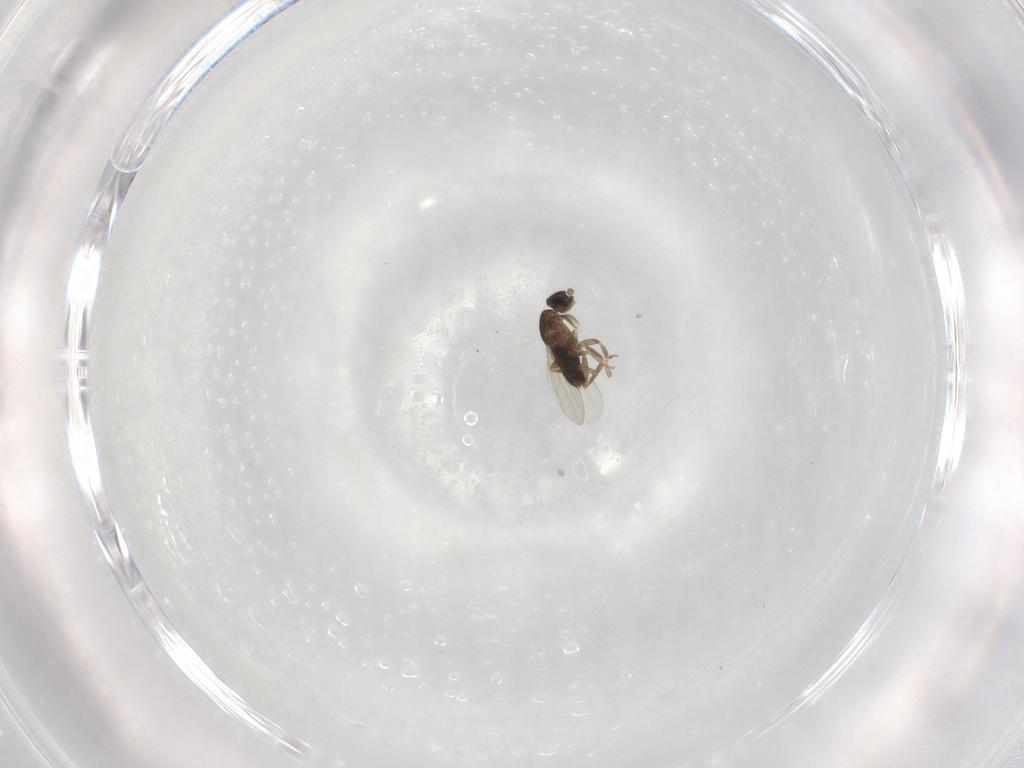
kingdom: Animalia
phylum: Arthropoda
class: Insecta
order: Diptera
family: Phoridae
